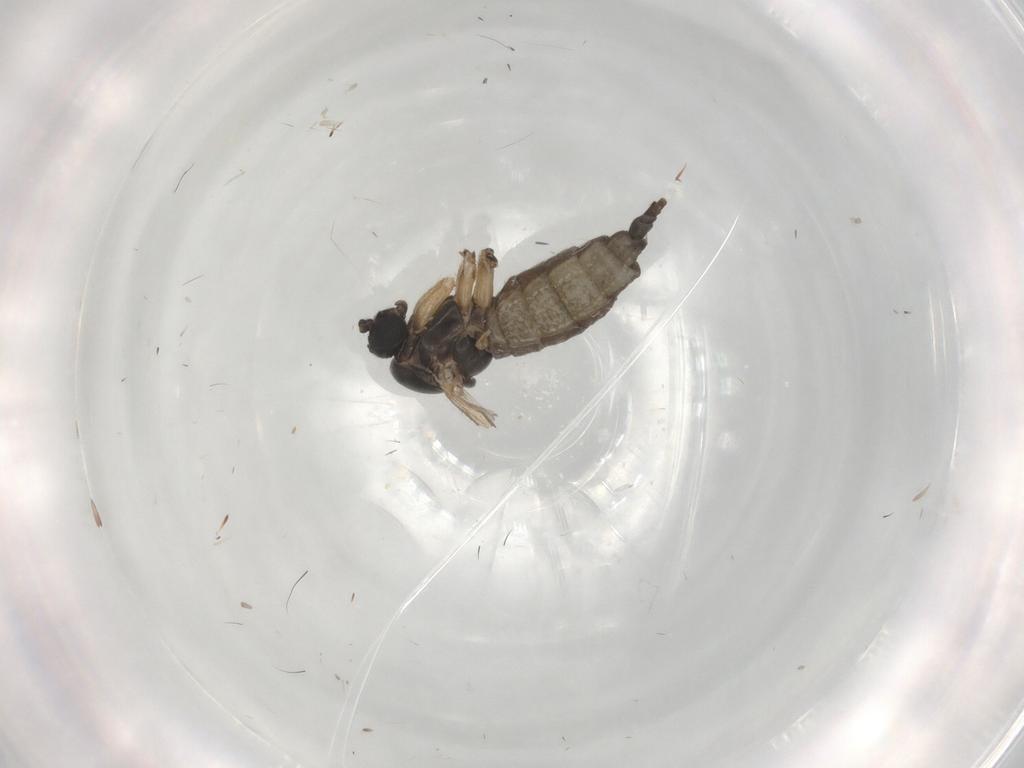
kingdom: Animalia
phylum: Arthropoda
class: Insecta
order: Diptera
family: Sciaridae
